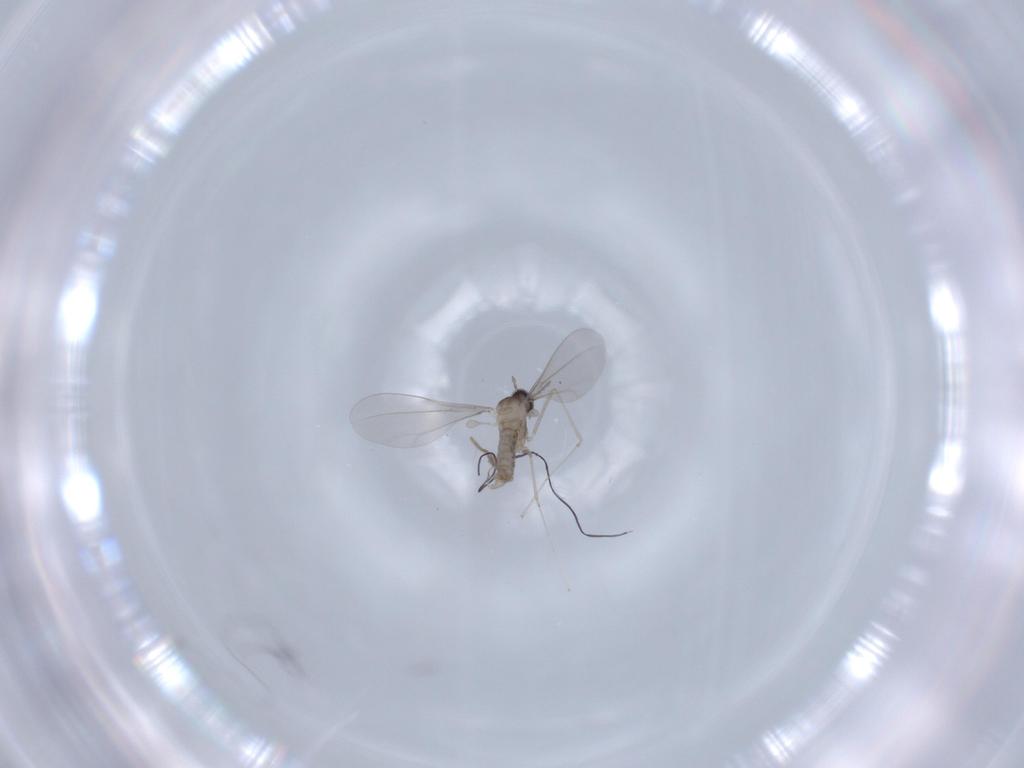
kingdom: Animalia
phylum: Arthropoda
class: Insecta
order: Diptera
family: Cecidomyiidae
